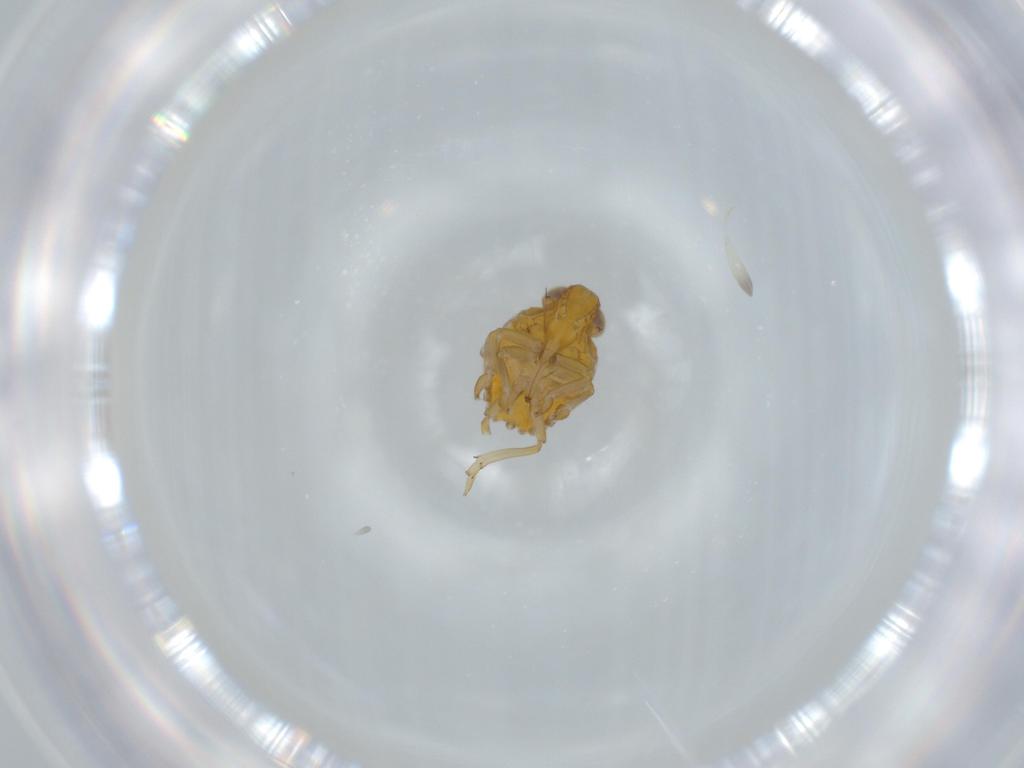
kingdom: Animalia
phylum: Arthropoda
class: Insecta
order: Hemiptera
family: Issidae
